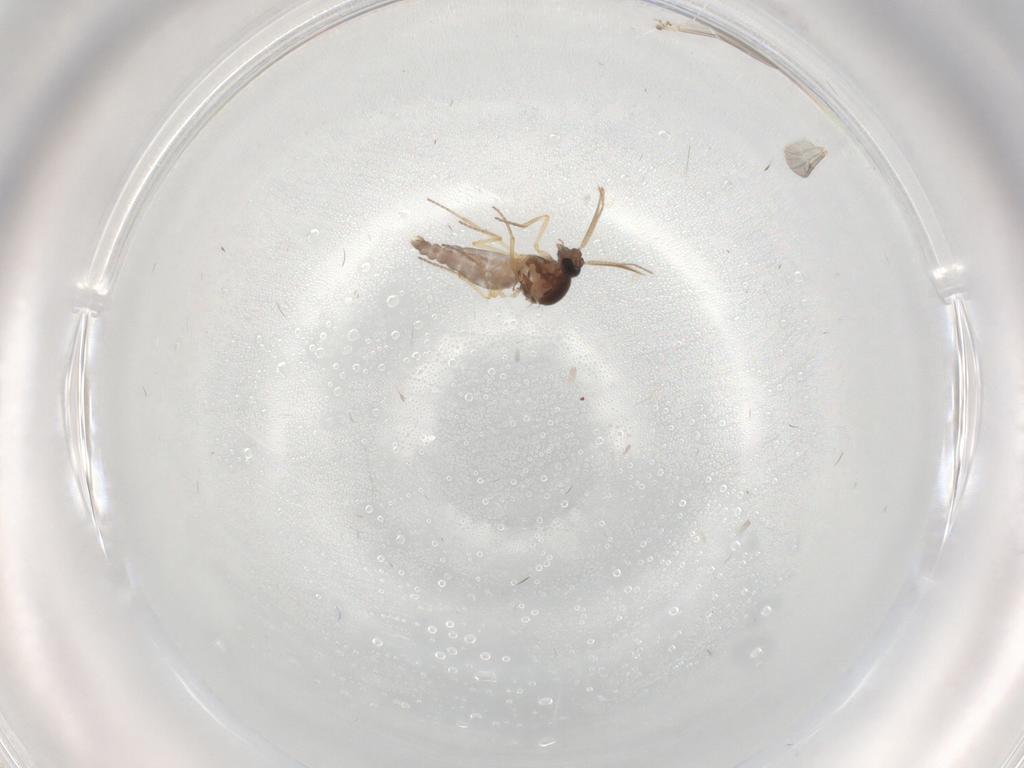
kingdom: Animalia
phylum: Arthropoda
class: Insecta
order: Diptera
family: Ceratopogonidae
